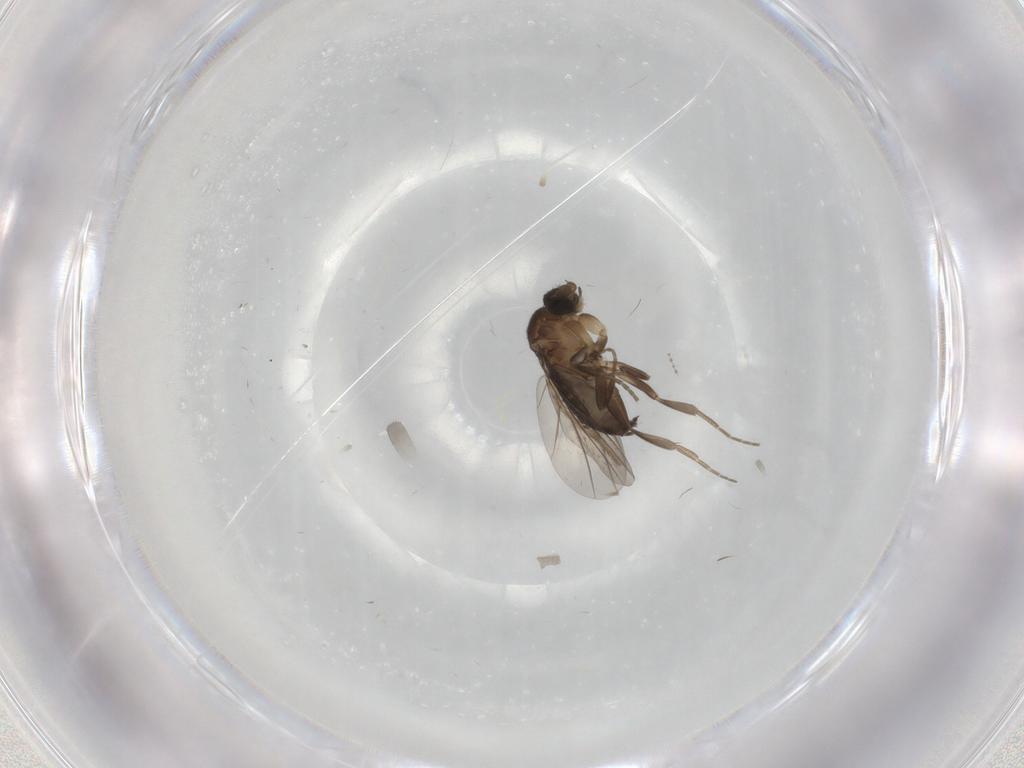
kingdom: Animalia
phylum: Arthropoda
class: Insecta
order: Diptera
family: Phoridae
